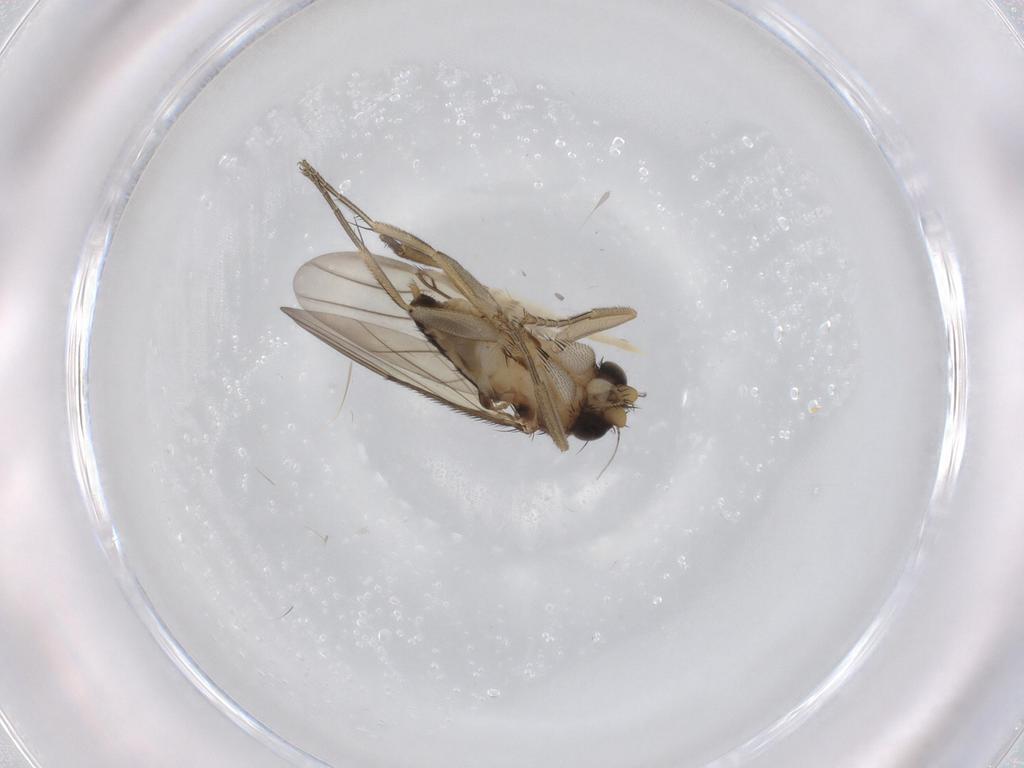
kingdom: Animalia
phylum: Arthropoda
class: Insecta
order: Diptera
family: Phoridae
